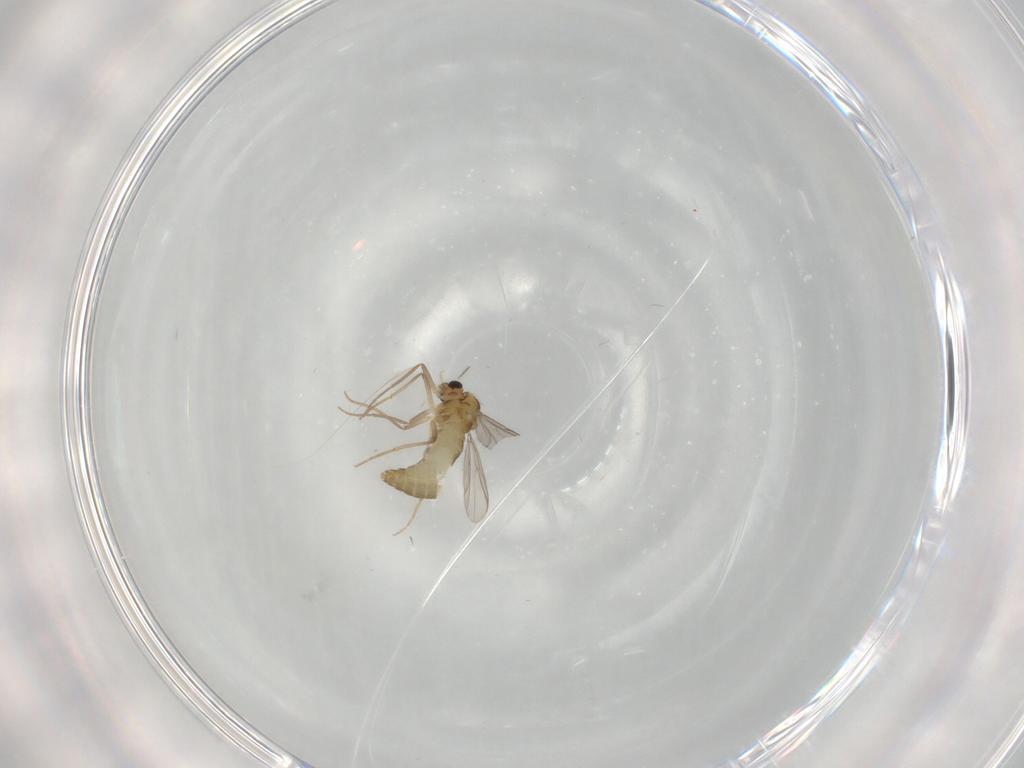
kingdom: Animalia
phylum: Arthropoda
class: Insecta
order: Diptera
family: Chironomidae
